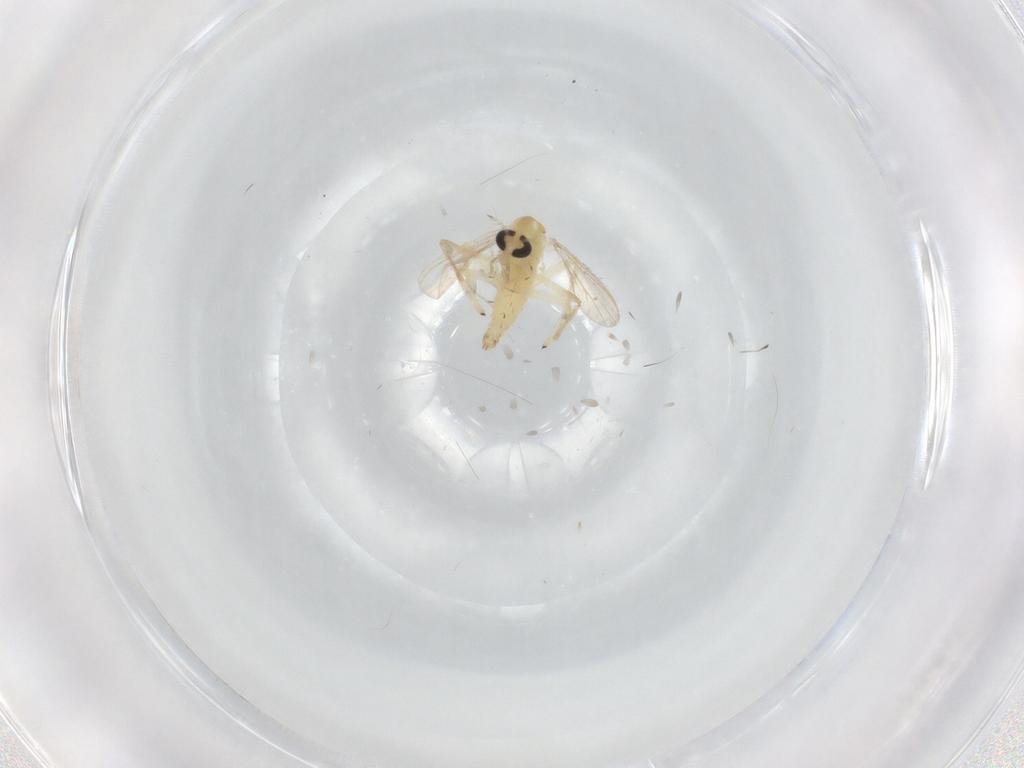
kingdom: Animalia
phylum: Arthropoda
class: Insecta
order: Diptera
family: Chironomidae
